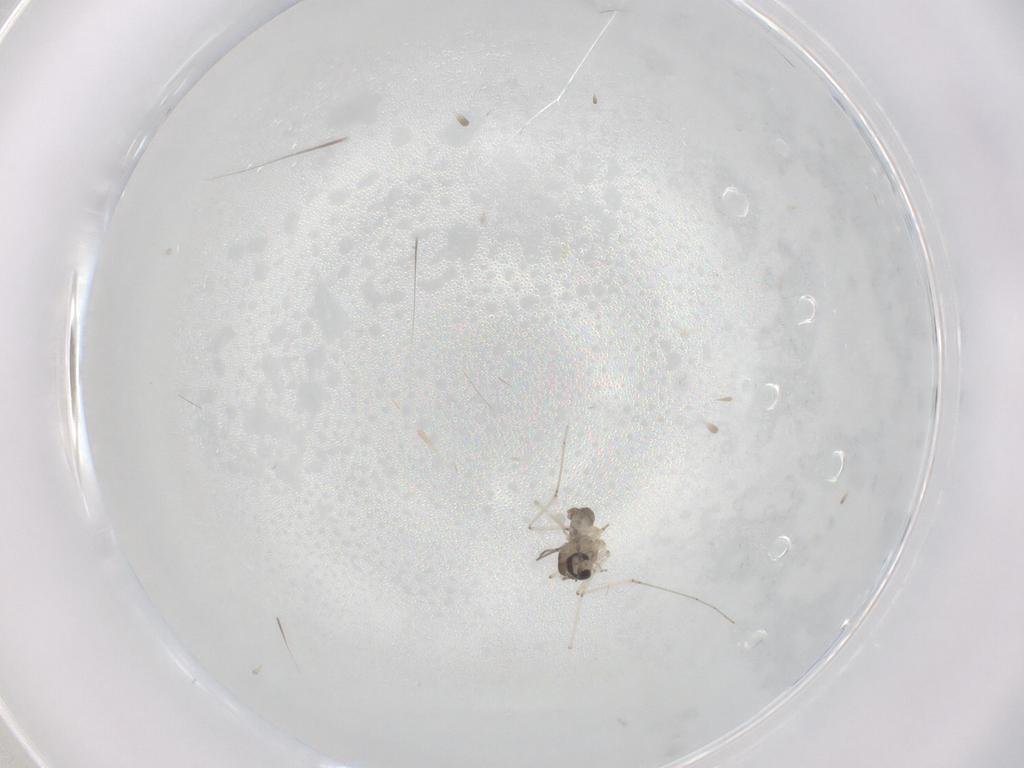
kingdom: Animalia
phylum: Arthropoda
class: Insecta
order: Diptera
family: Cecidomyiidae
